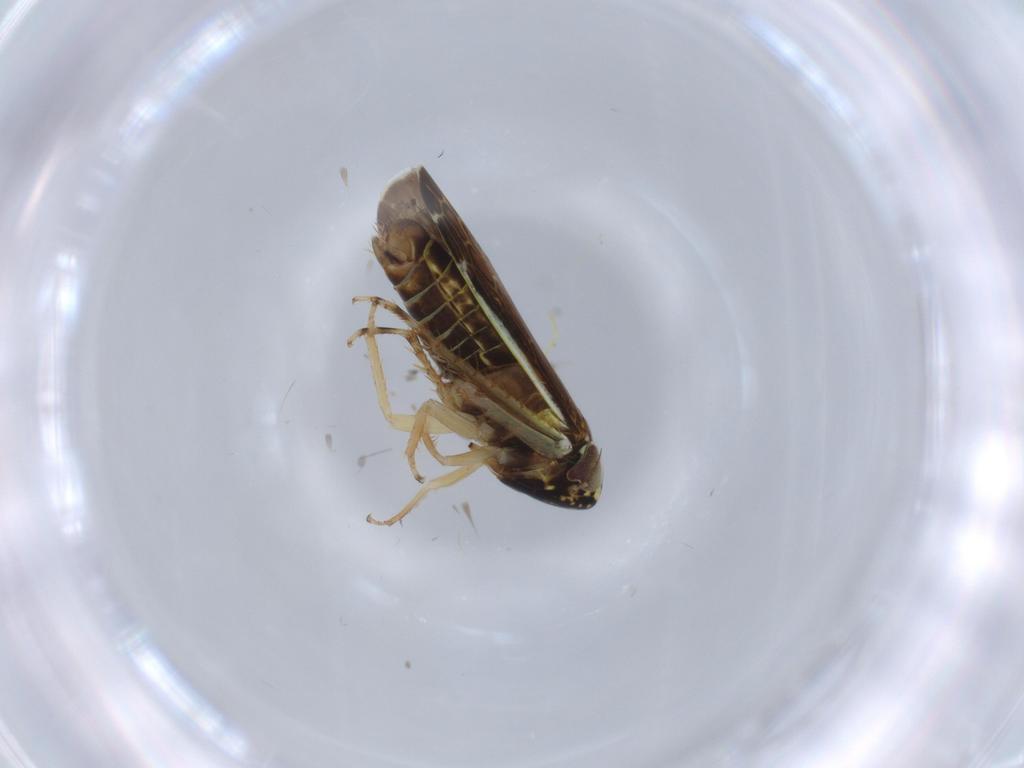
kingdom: Animalia
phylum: Arthropoda
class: Insecta
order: Hemiptera
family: Cicadellidae
